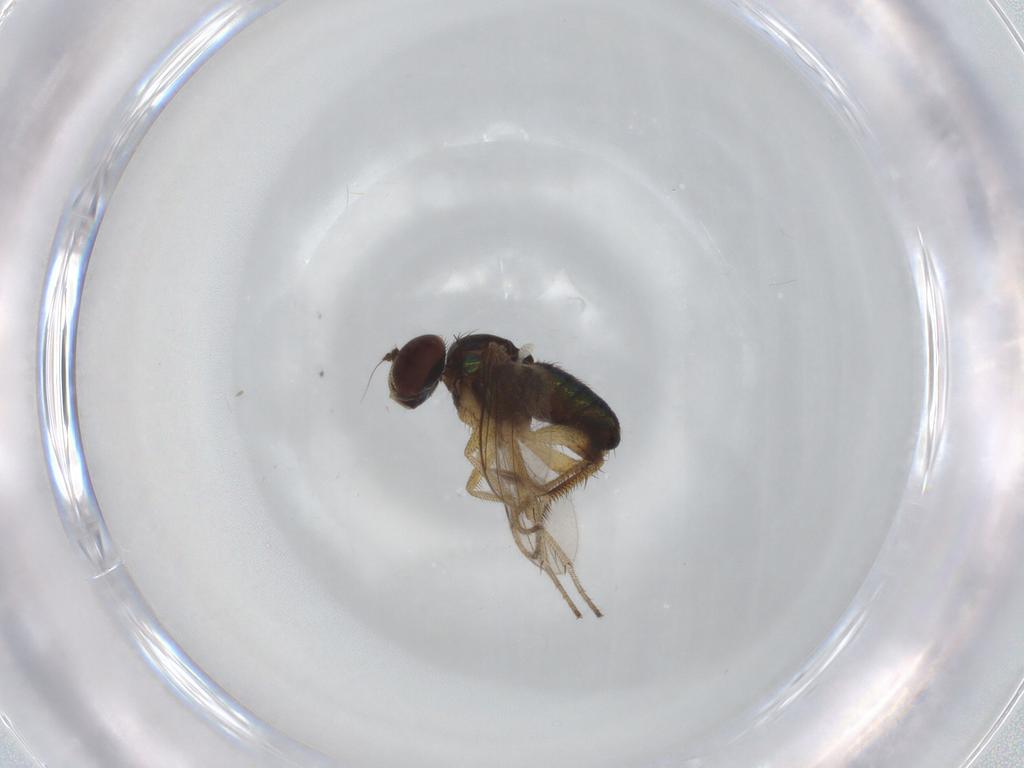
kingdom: Animalia
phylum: Arthropoda
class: Insecta
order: Diptera
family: Dolichopodidae
